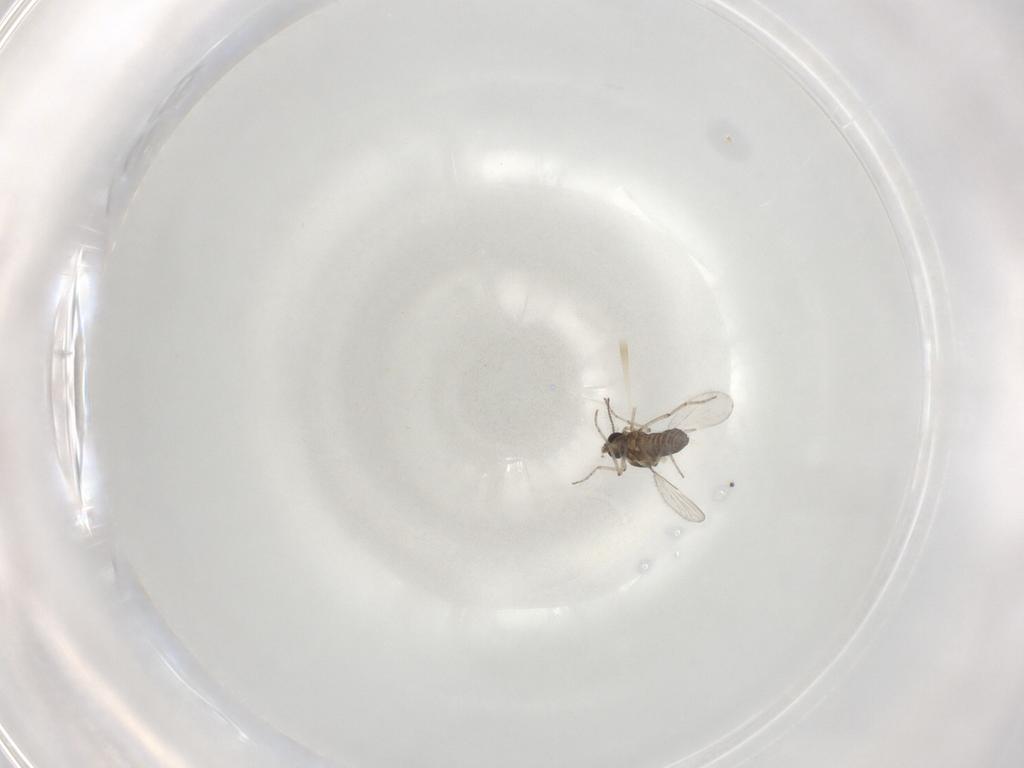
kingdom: Animalia
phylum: Arthropoda
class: Insecta
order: Diptera
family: Ceratopogonidae
